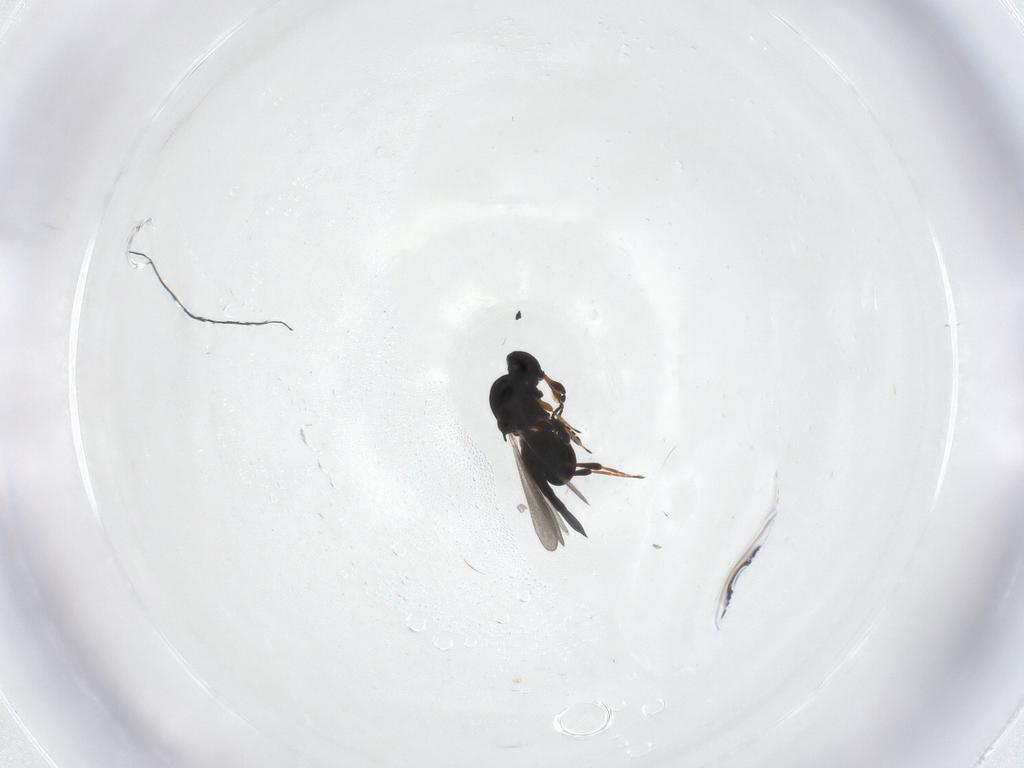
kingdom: Animalia
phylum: Arthropoda
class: Insecta
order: Hymenoptera
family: Platygastridae
